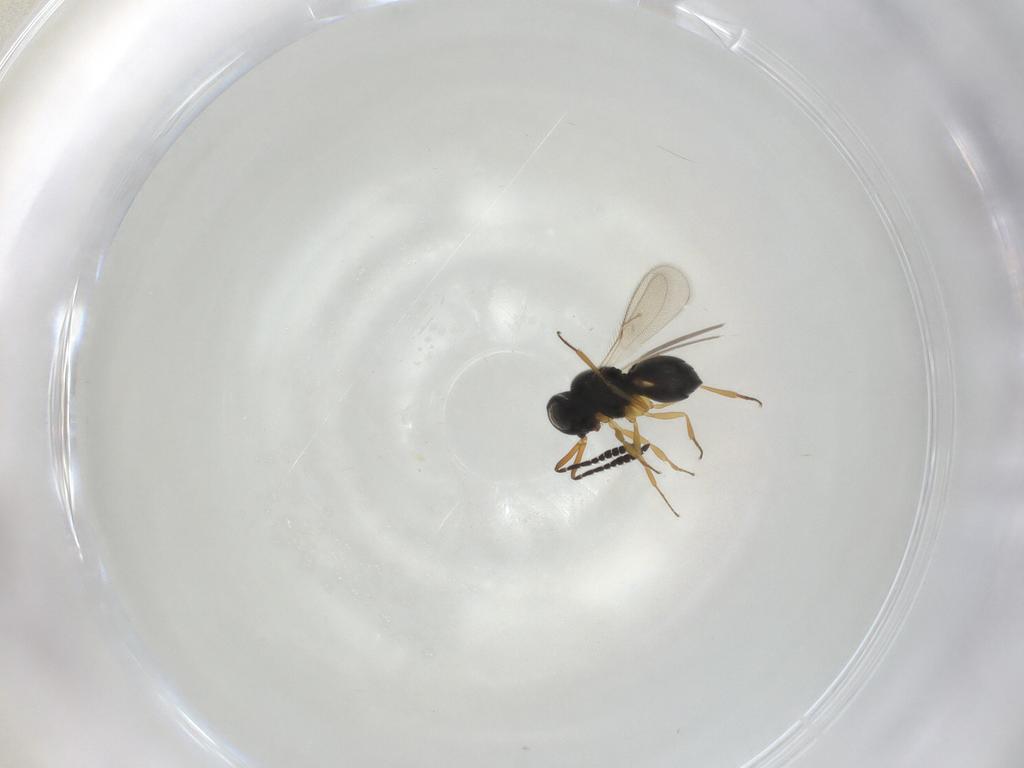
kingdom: Animalia
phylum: Arthropoda
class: Insecta
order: Hymenoptera
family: Scelionidae
